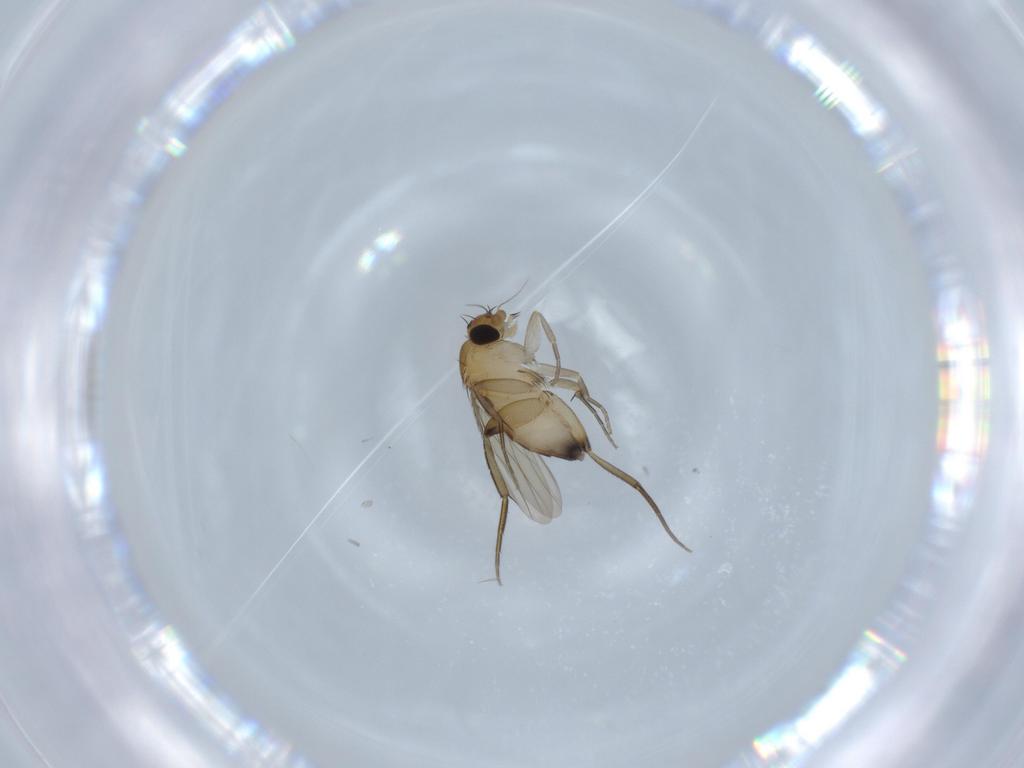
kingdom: Animalia
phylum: Arthropoda
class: Insecta
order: Diptera
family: Phoridae
